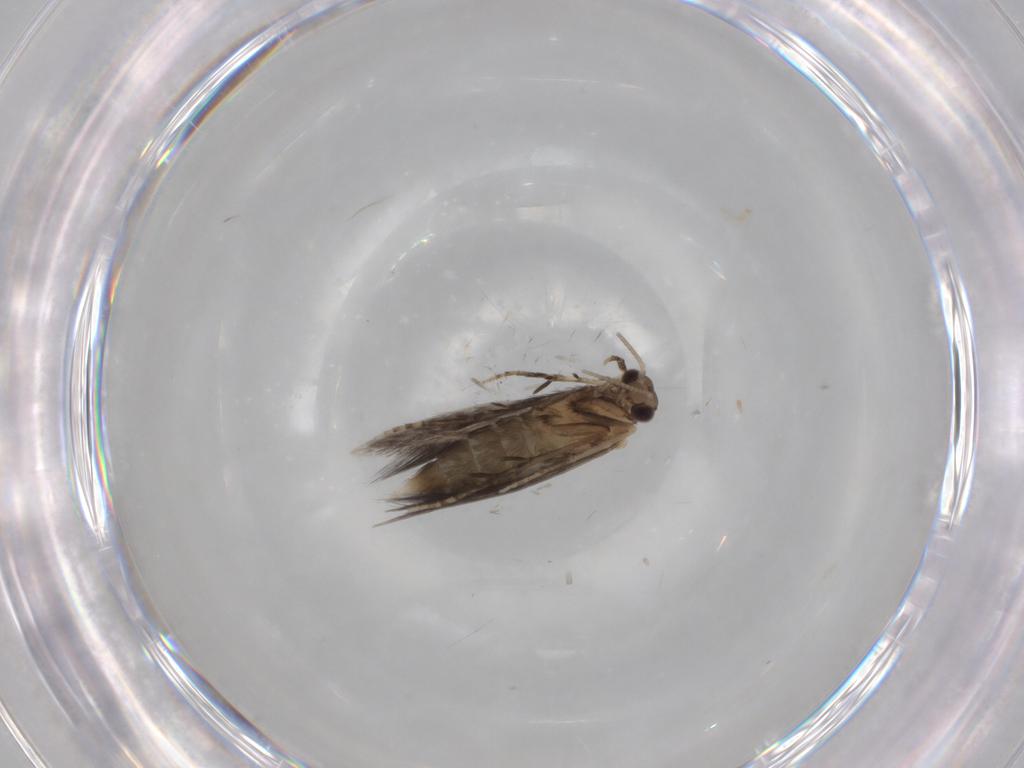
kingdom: Animalia
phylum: Arthropoda
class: Insecta
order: Trichoptera
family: Hydroptilidae
